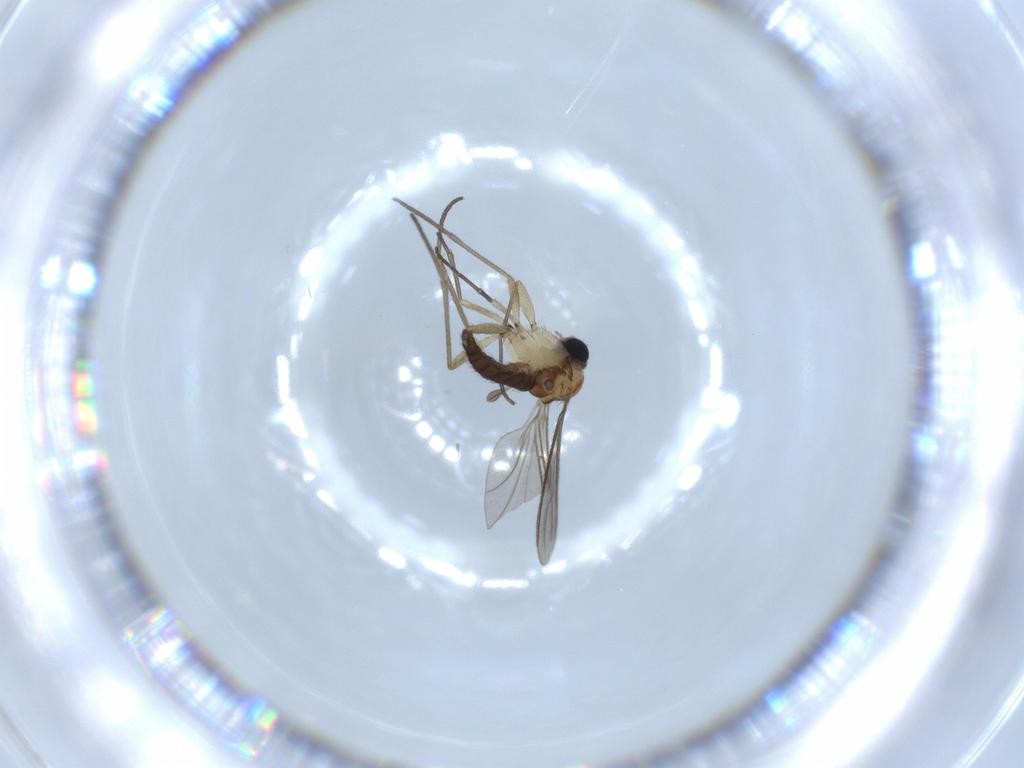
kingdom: Animalia
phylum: Arthropoda
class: Insecta
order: Diptera
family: Sciaridae
